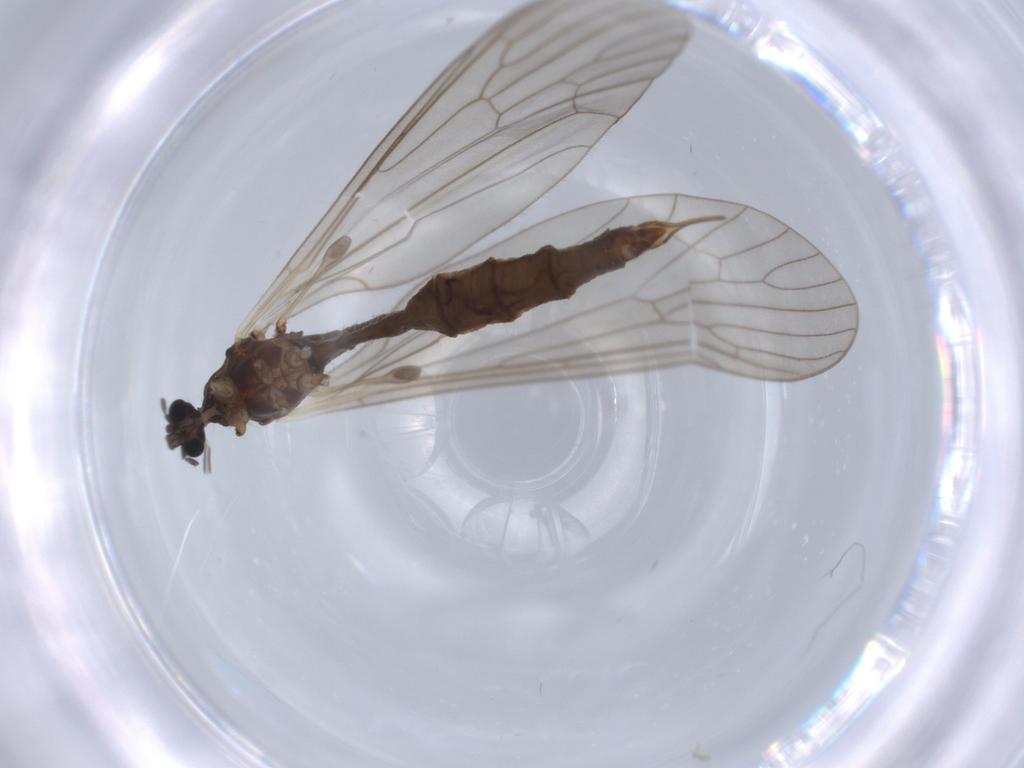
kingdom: Animalia
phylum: Arthropoda
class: Insecta
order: Diptera
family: Trichoceridae
